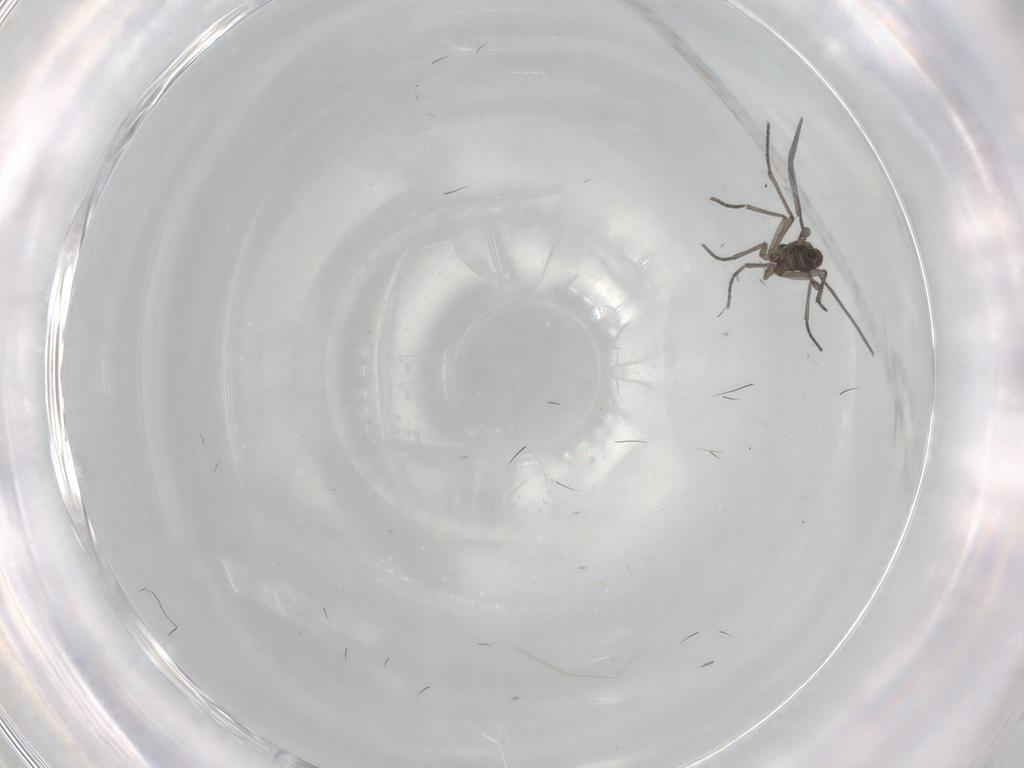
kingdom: Animalia
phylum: Arthropoda
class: Insecta
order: Diptera
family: Sciaridae
